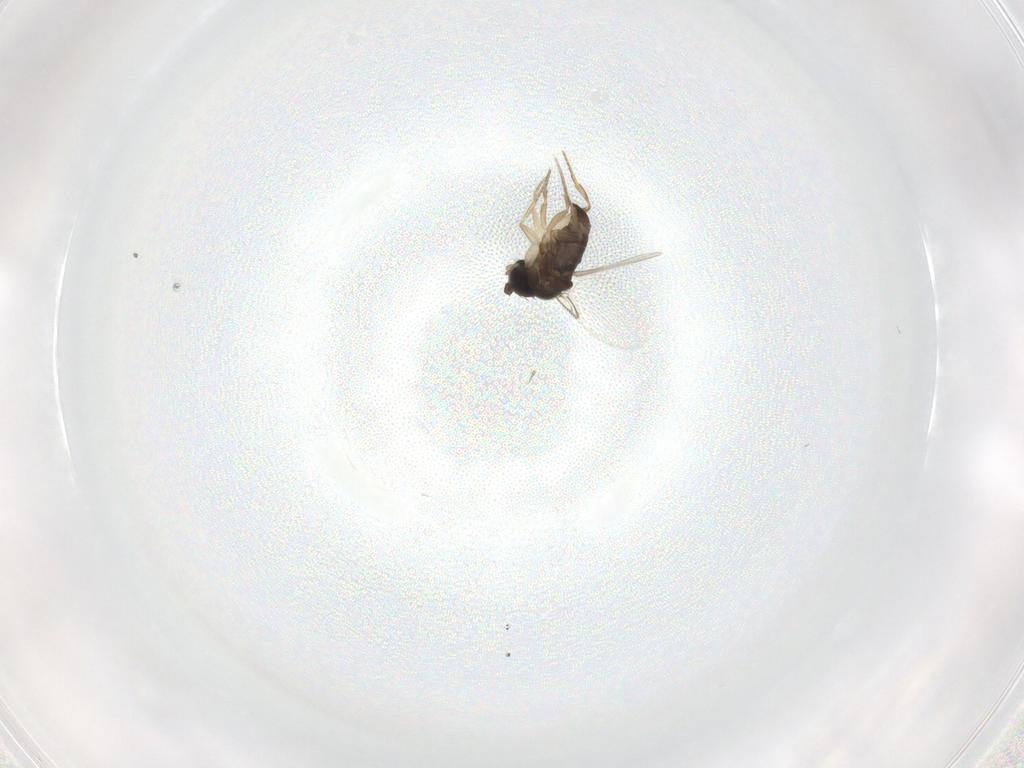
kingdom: Animalia
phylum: Arthropoda
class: Insecta
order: Diptera
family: Phoridae
